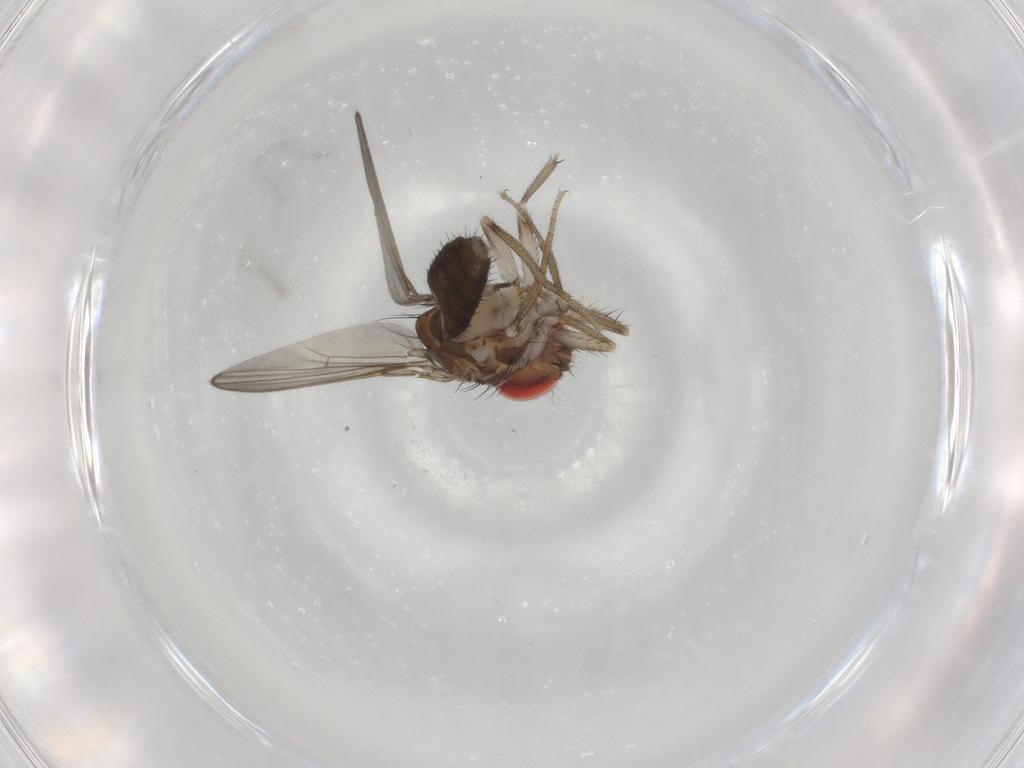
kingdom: Animalia
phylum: Arthropoda
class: Insecta
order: Diptera
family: Drosophilidae
